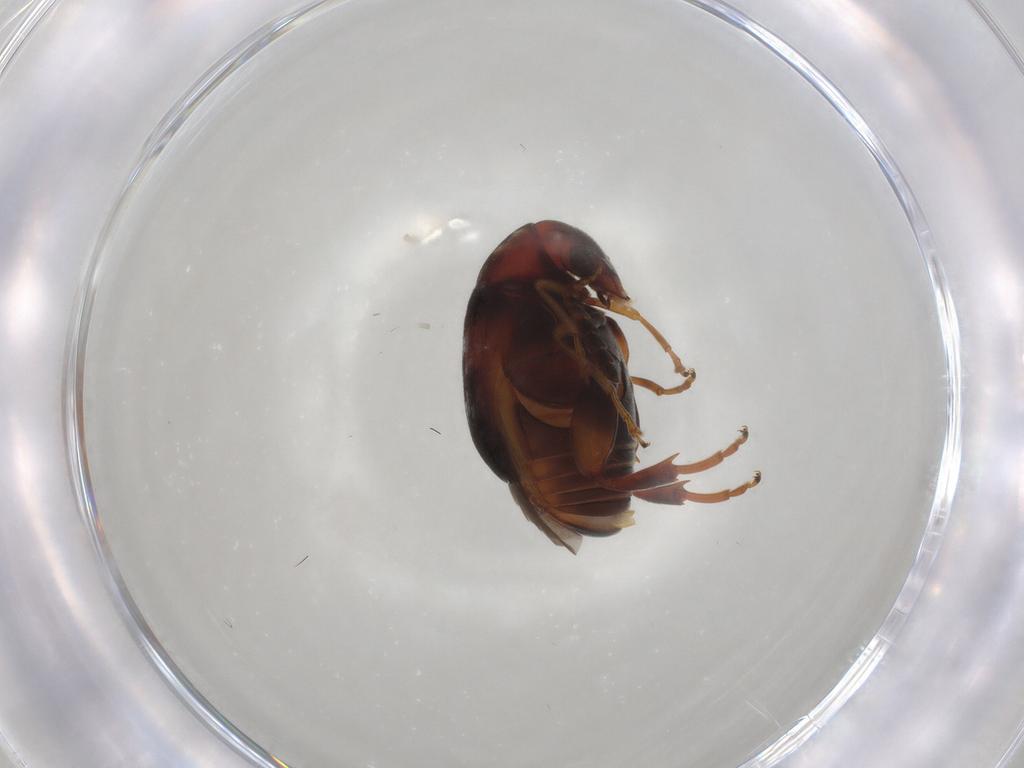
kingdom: Animalia
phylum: Arthropoda
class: Insecta
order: Coleoptera
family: Chrysomelidae
